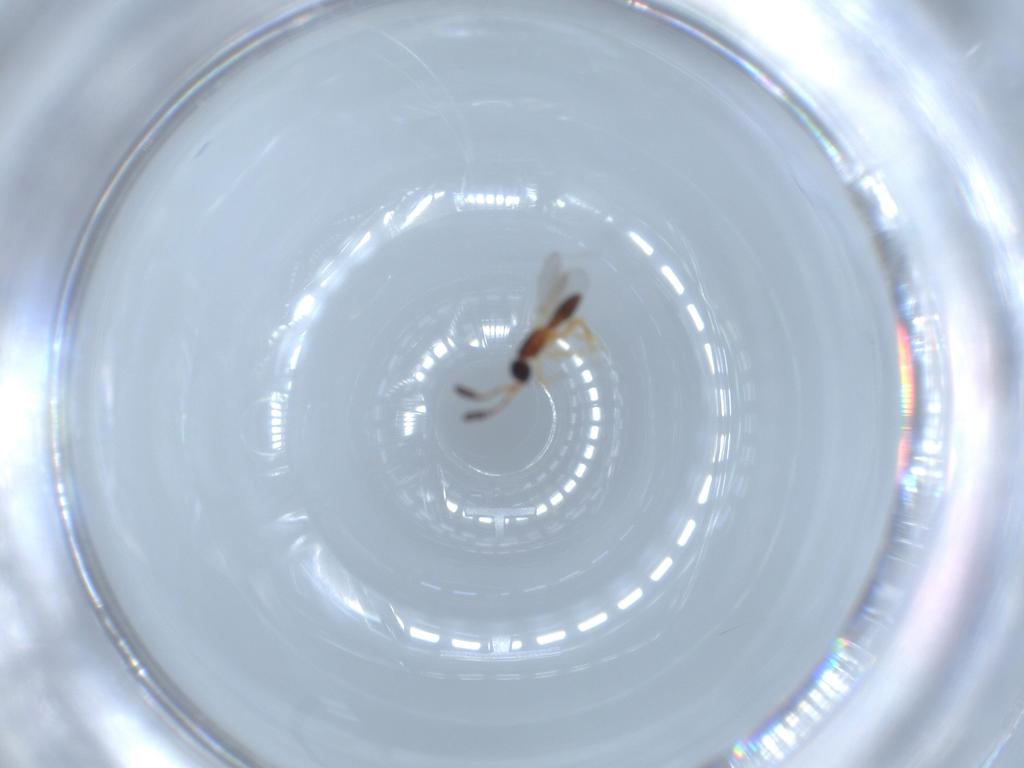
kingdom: Animalia
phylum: Arthropoda
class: Insecta
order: Hymenoptera
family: Diapriidae
